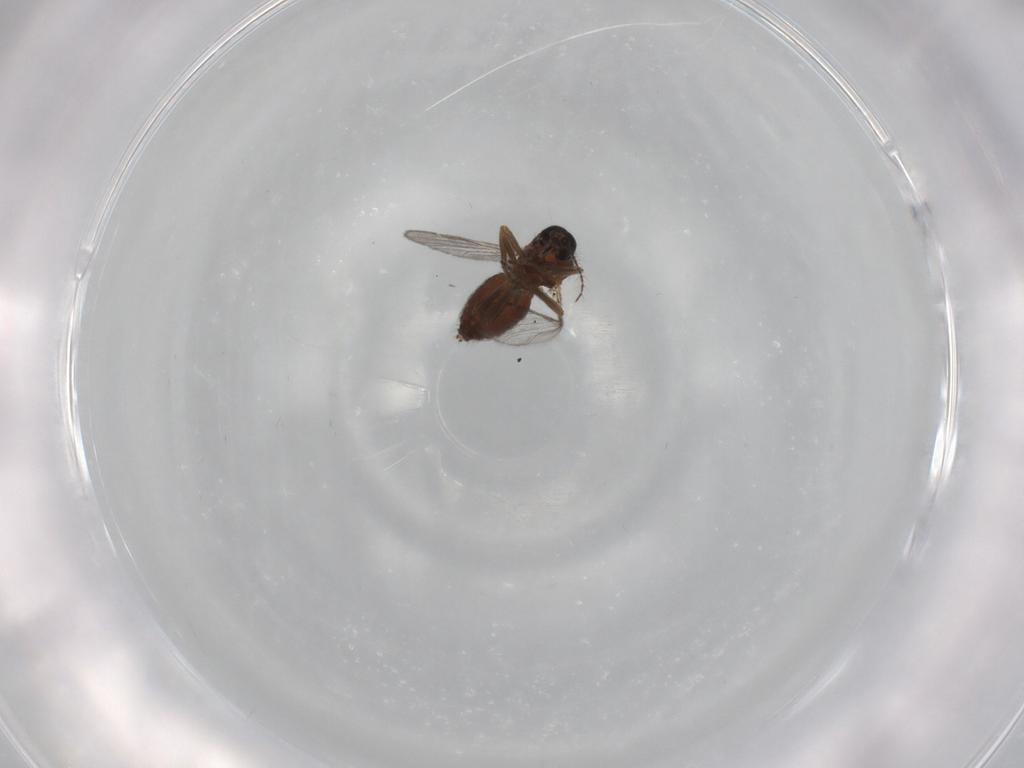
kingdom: Animalia
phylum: Arthropoda
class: Insecta
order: Diptera
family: Ceratopogonidae
